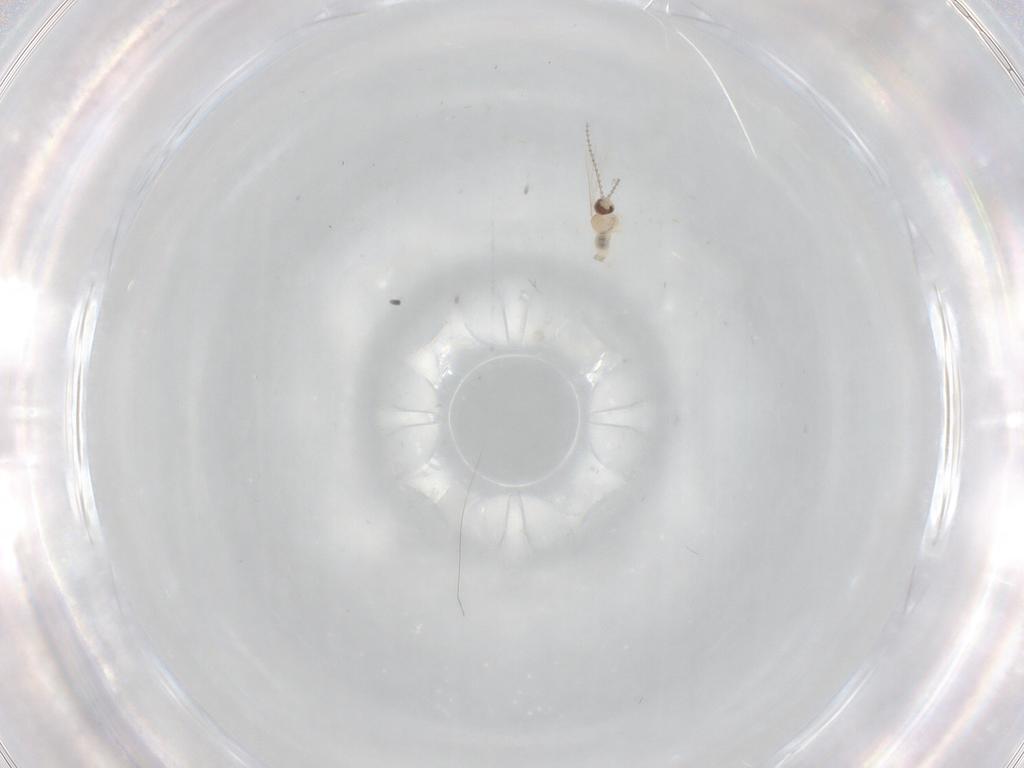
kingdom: Animalia
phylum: Arthropoda
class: Insecta
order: Diptera
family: Cecidomyiidae
